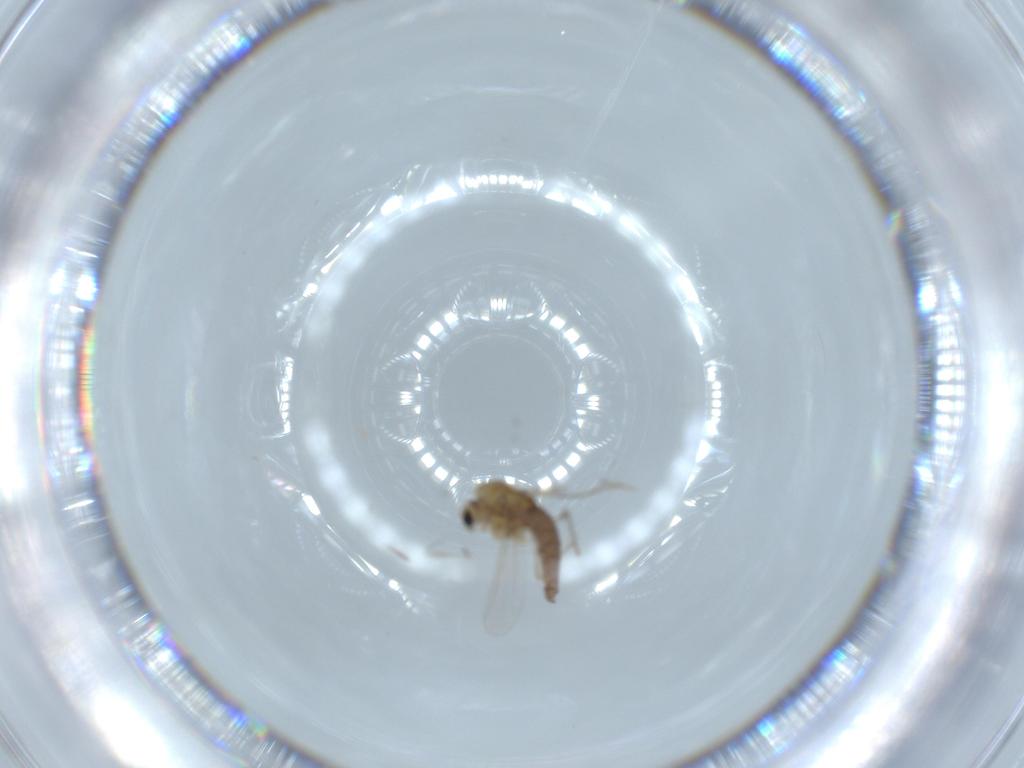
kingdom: Animalia
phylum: Arthropoda
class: Insecta
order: Diptera
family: Chironomidae
